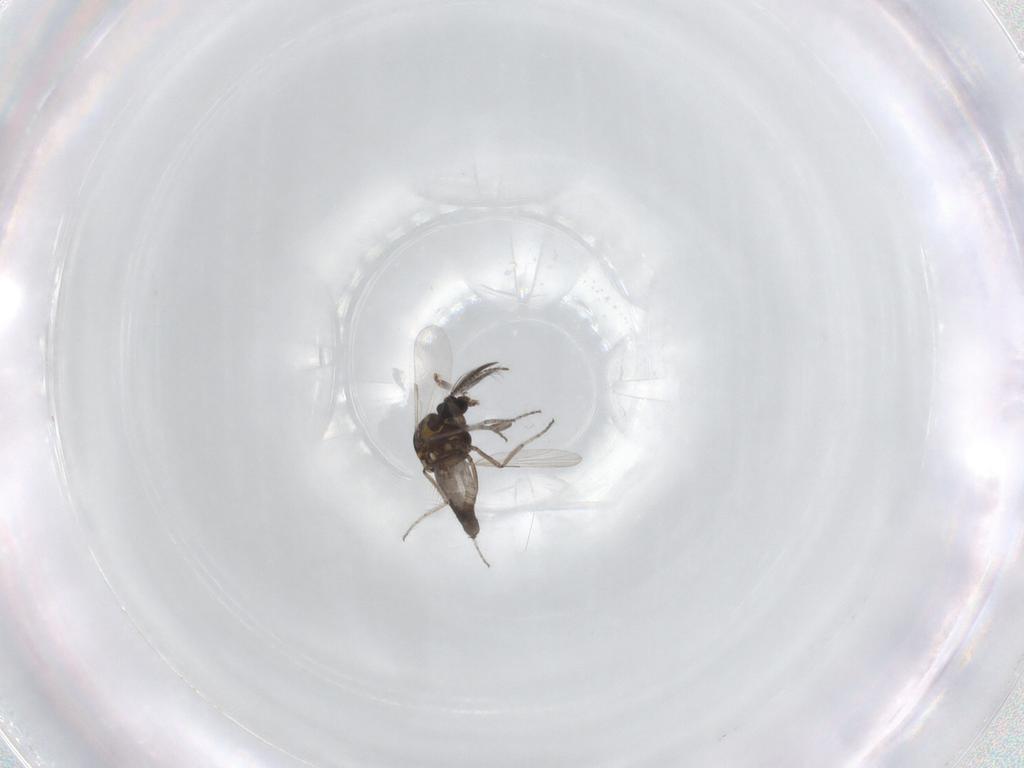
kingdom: Animalia
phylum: Arthropoda
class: Insecta
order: Diptera
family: Ceratopogonidae
